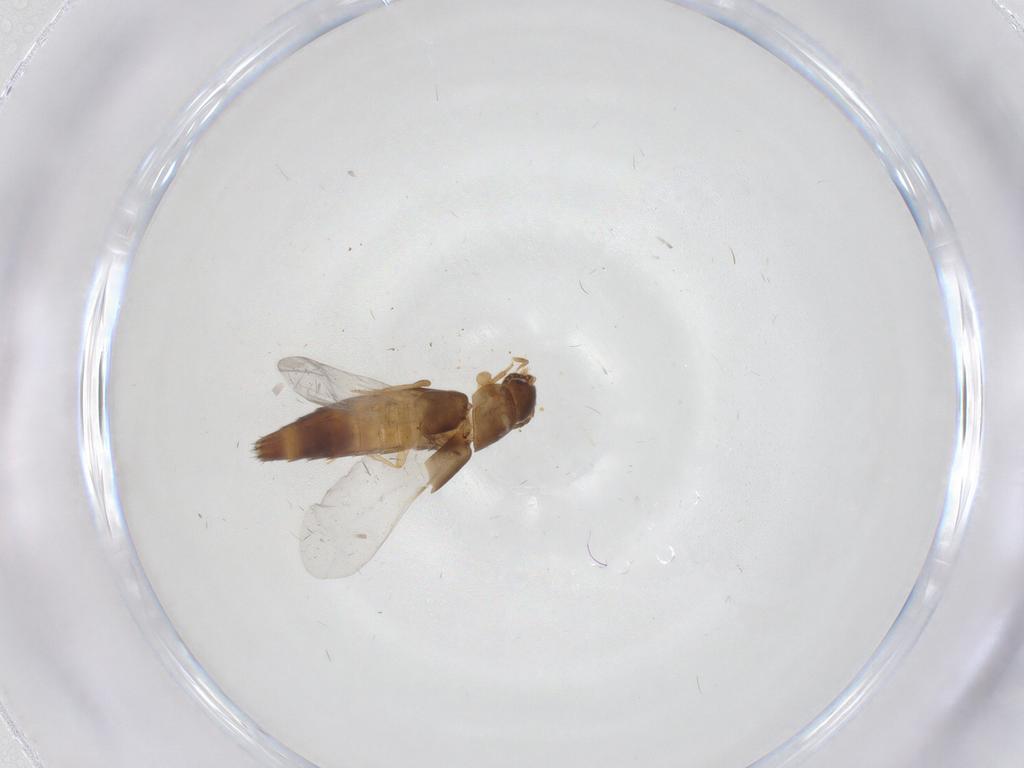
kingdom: Animalia
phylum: Arthropoda
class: Insecta
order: Coleoptera
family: Staphylinidae
